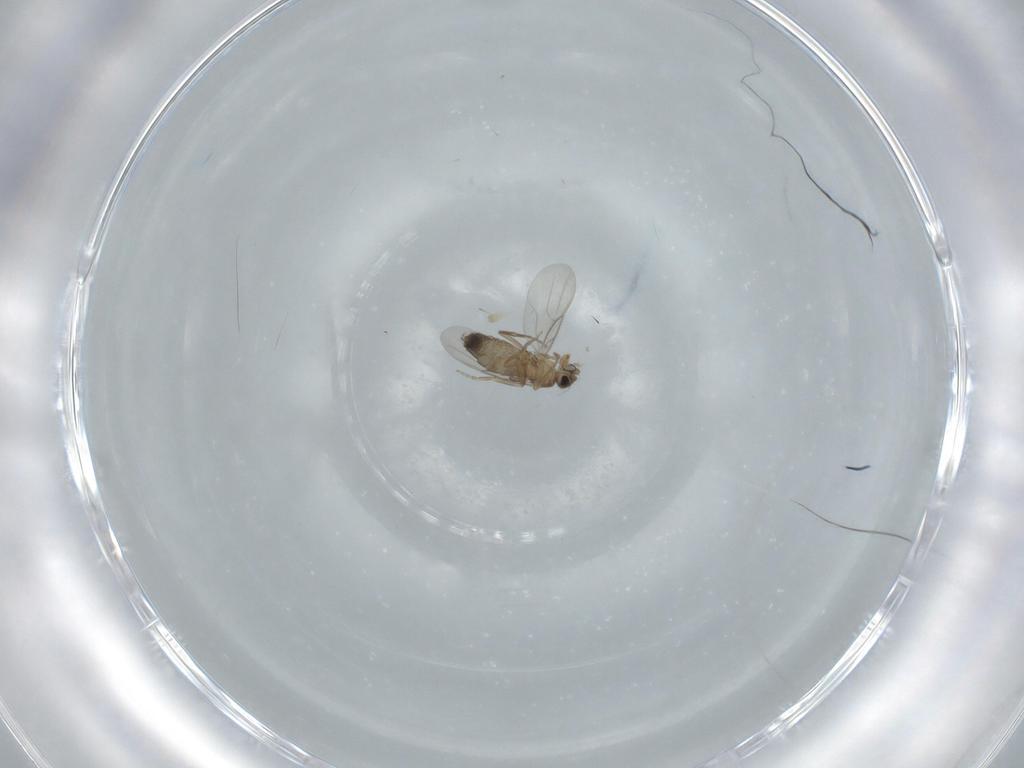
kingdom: Animalia
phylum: Arthropoda
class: Insecta
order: Diptera
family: Phoridae
